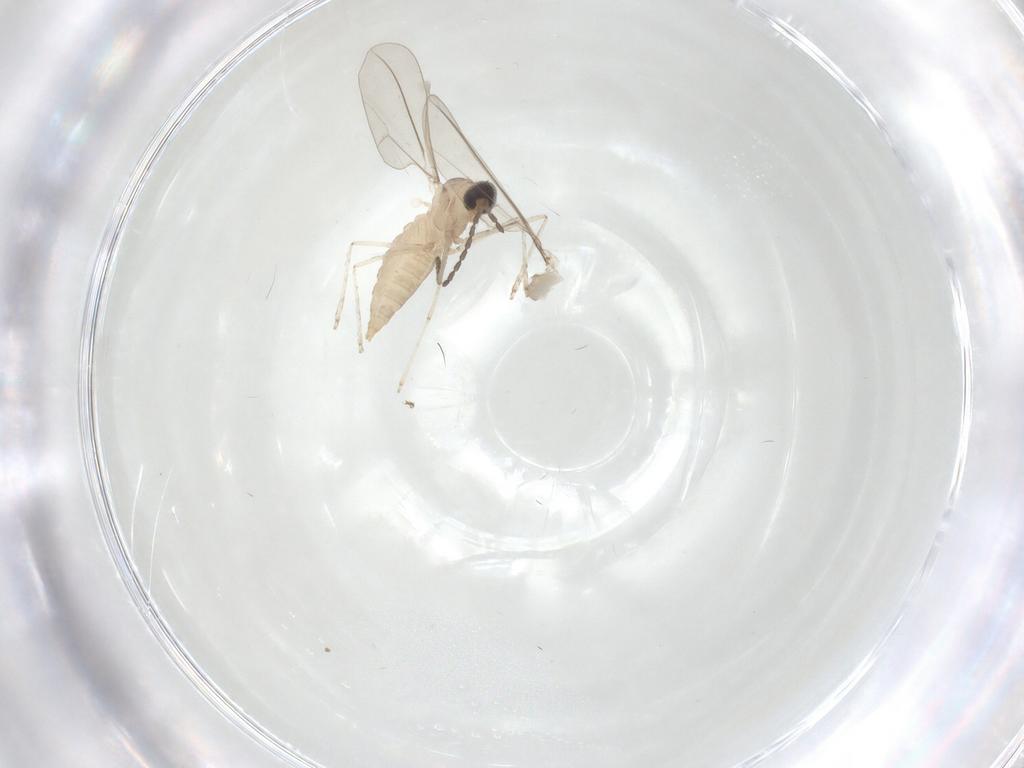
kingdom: Animalia
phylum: Arthropoda
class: Insecta
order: Diptera
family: Cecidomyiidae
